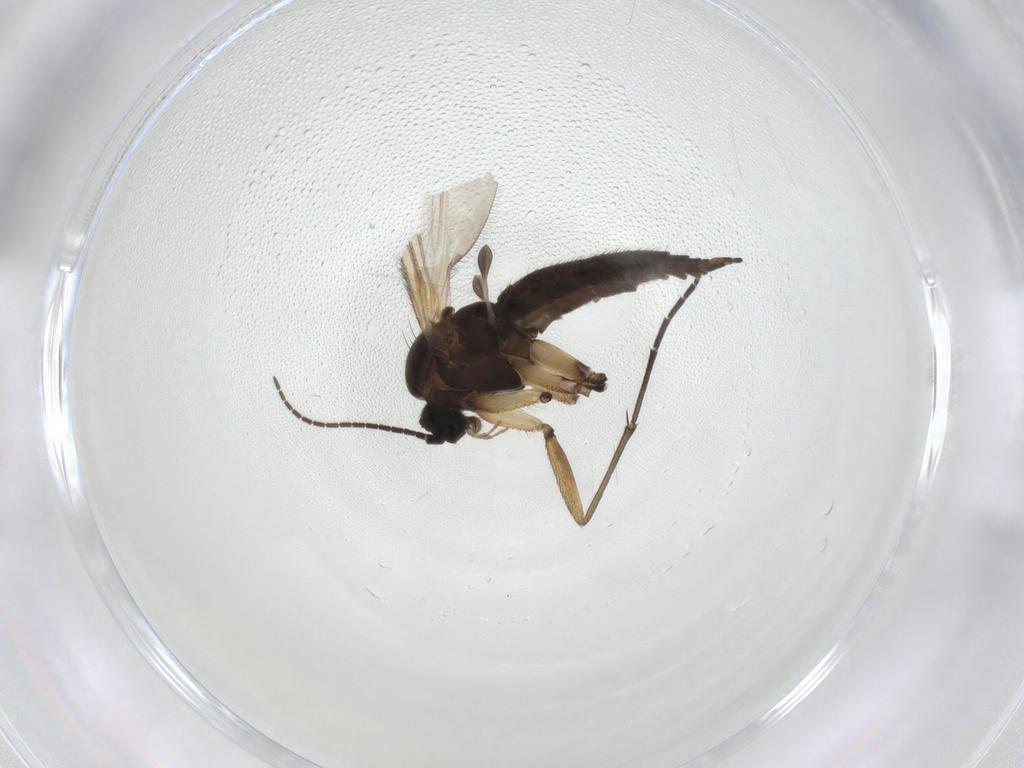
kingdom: Animalia
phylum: Arthropoda
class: Insecta
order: Diptera
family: Sciaridae
